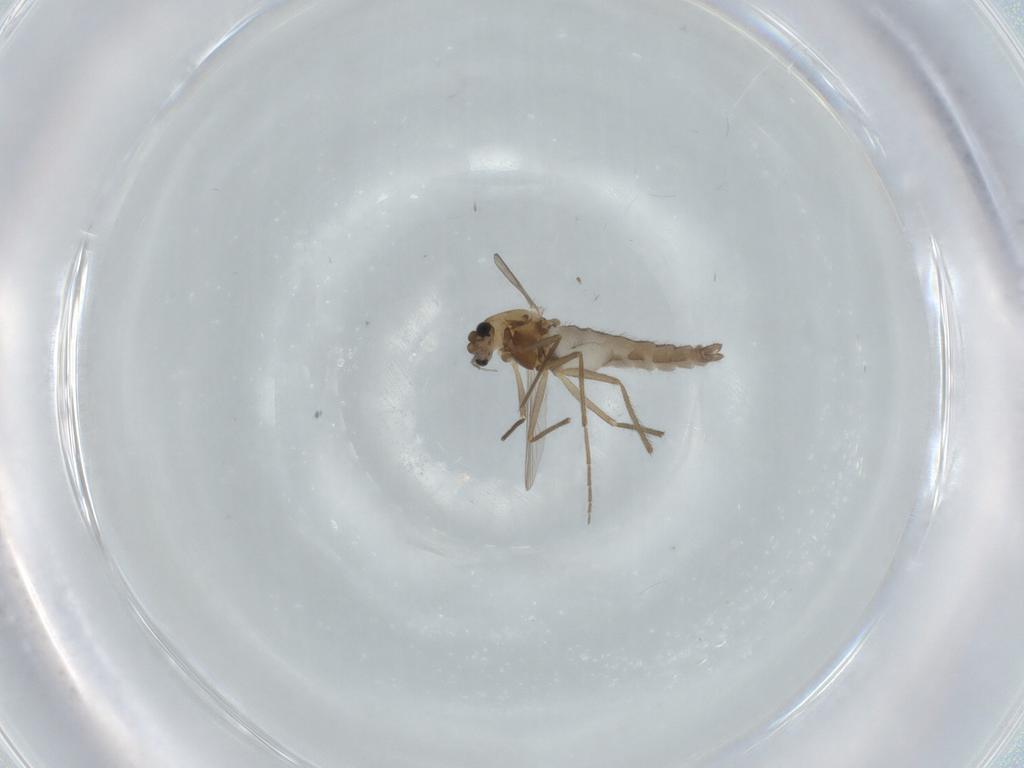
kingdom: Animalia
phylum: Arthropoda
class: Insecta
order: Diptera
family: Chironomidae
